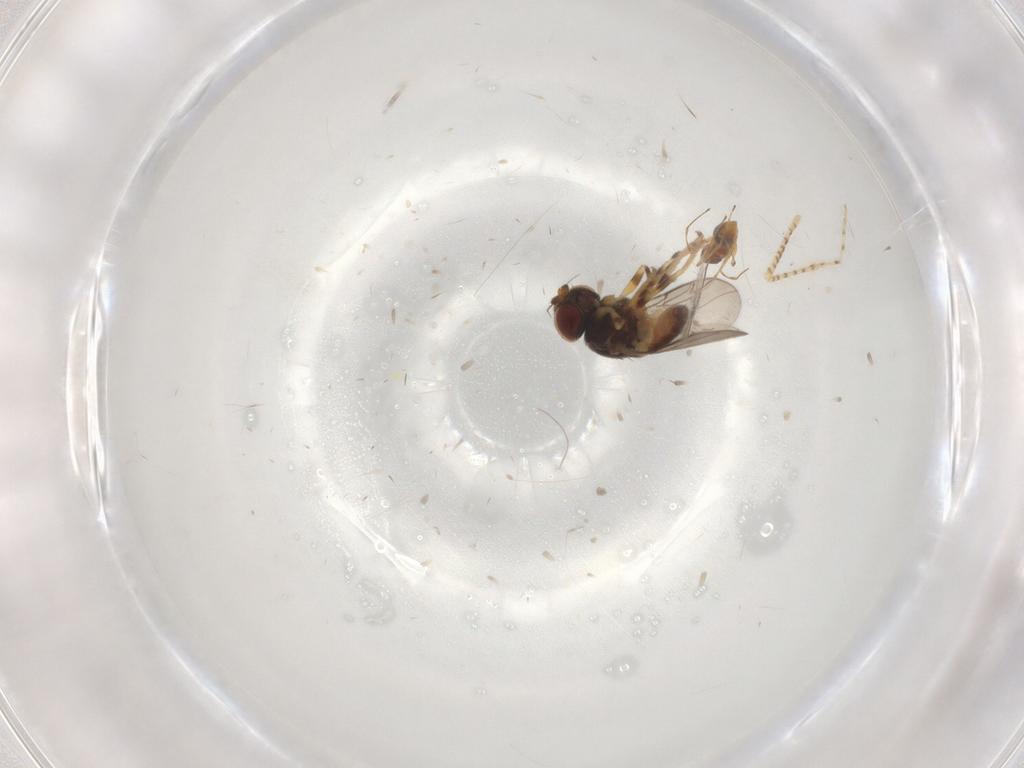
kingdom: Animalia
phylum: Arthropoda
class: Insecta
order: Diptera
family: Chloropidae
